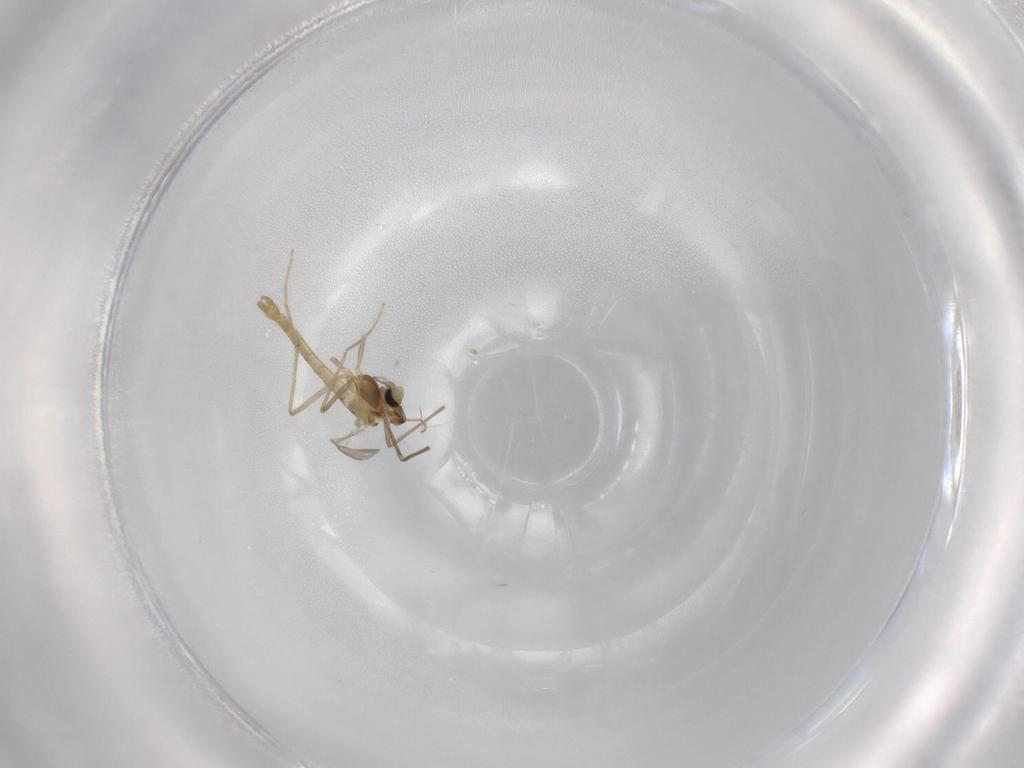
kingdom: Animalia
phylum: Arthropoda
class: Insecta
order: Diptera
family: Chironomidae
